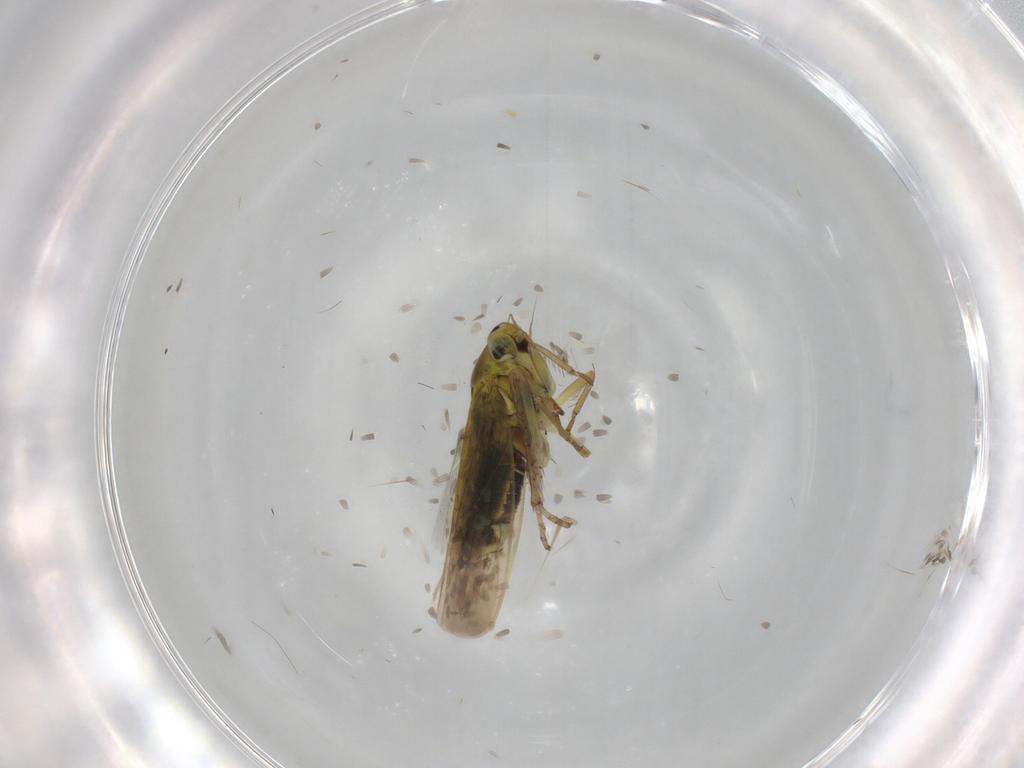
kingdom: Animalia
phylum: Arthropoda
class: Insecta
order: Hemiptera
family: Cicadellidae
